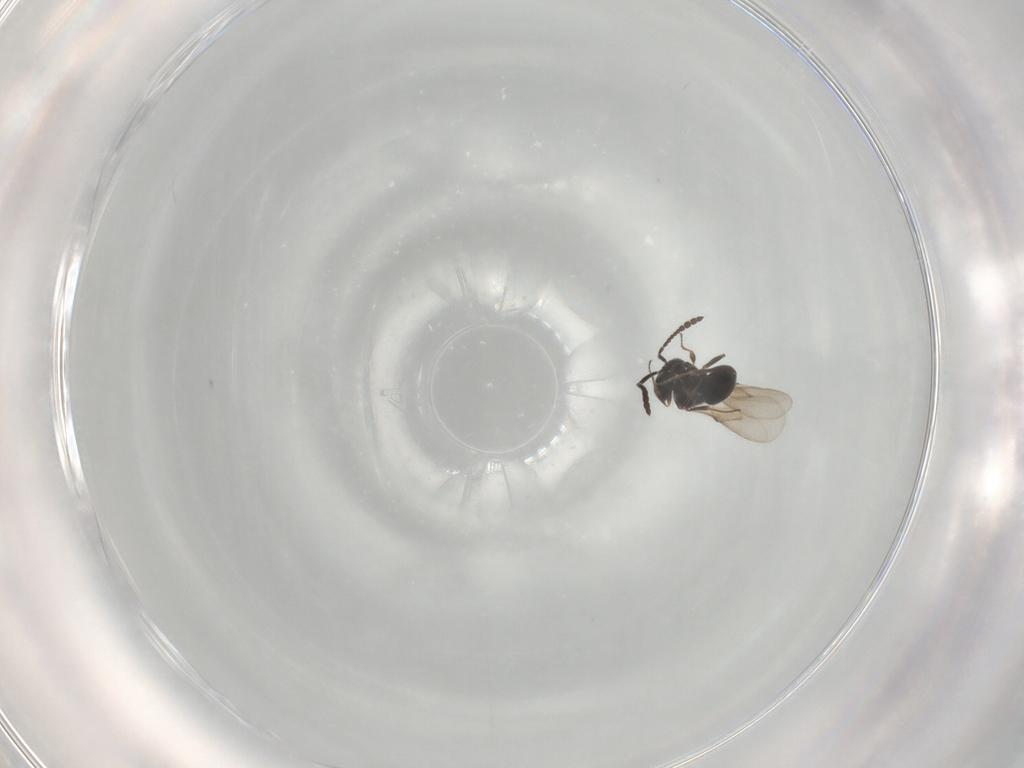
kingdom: Animalia
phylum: Arthropoda
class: Insecta
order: Hymenoptera
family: Scelionidae
